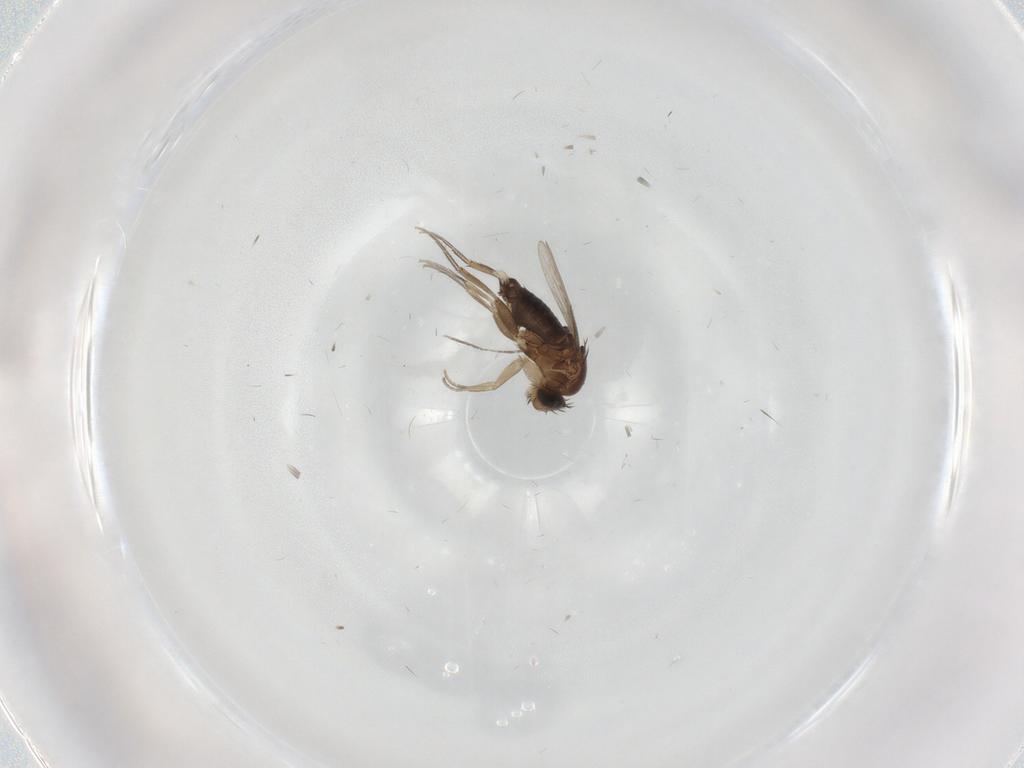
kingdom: Animalia
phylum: Arthropoda
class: Insecta
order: Diptera
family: Phoridae
